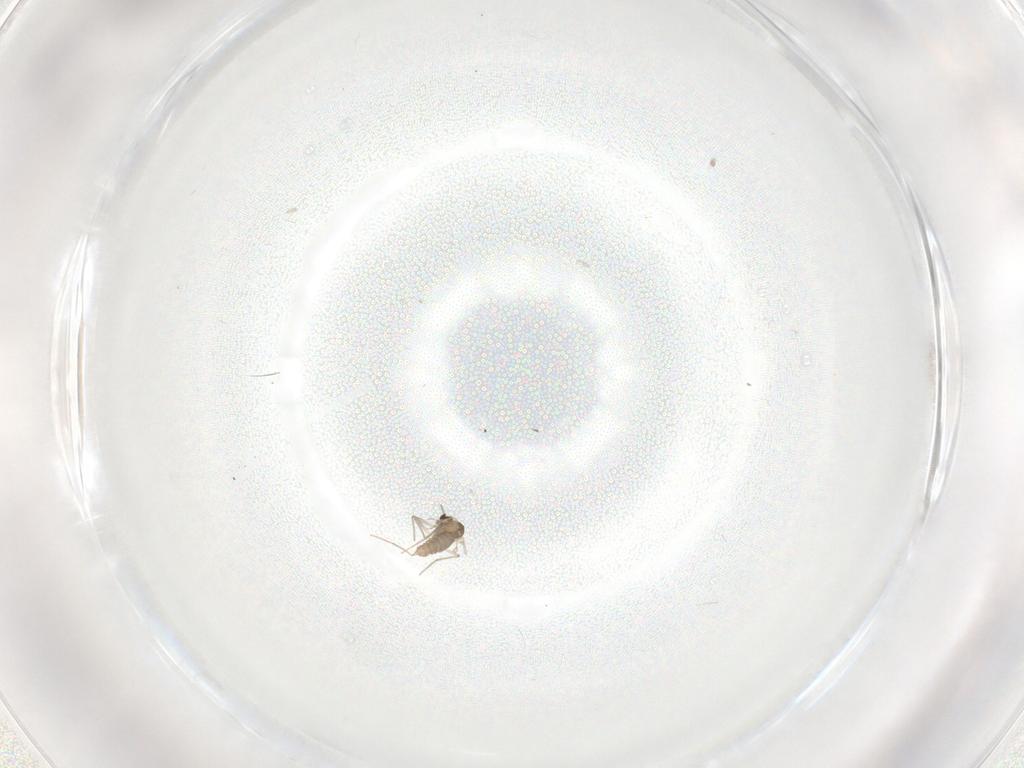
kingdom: Animalia
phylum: Arthropoda
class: Insecta
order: Diptera
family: Chironomidae
